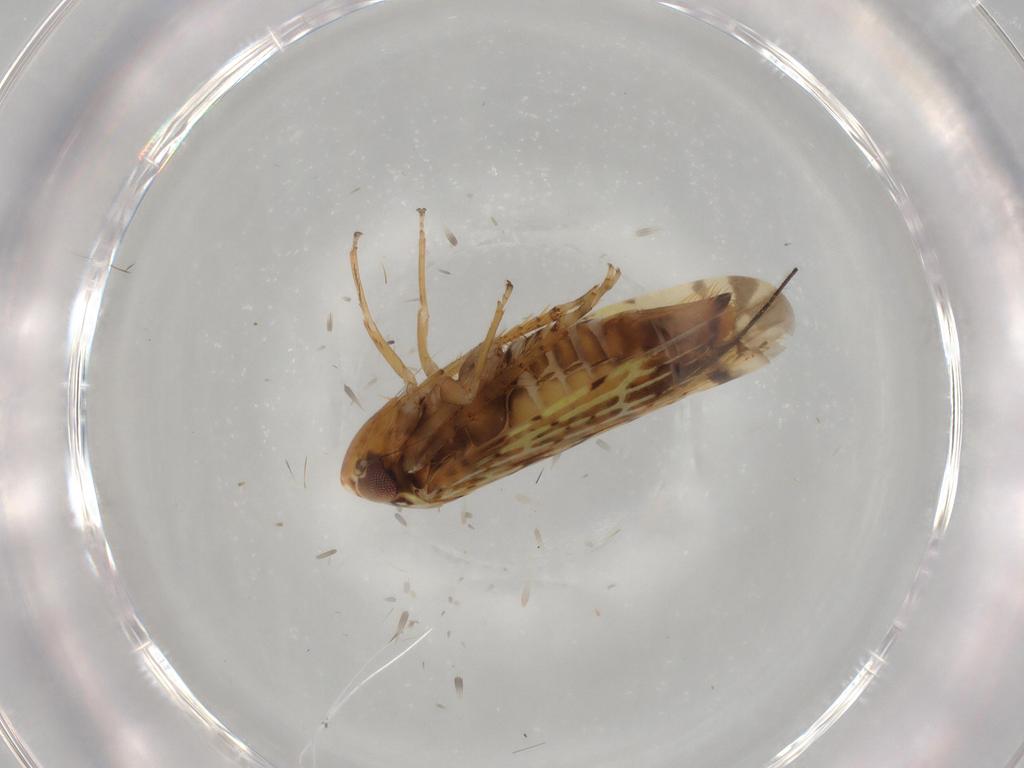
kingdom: Animalia
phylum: Arthropoda
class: Insecta
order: Hemiptera
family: Cicadellidae
